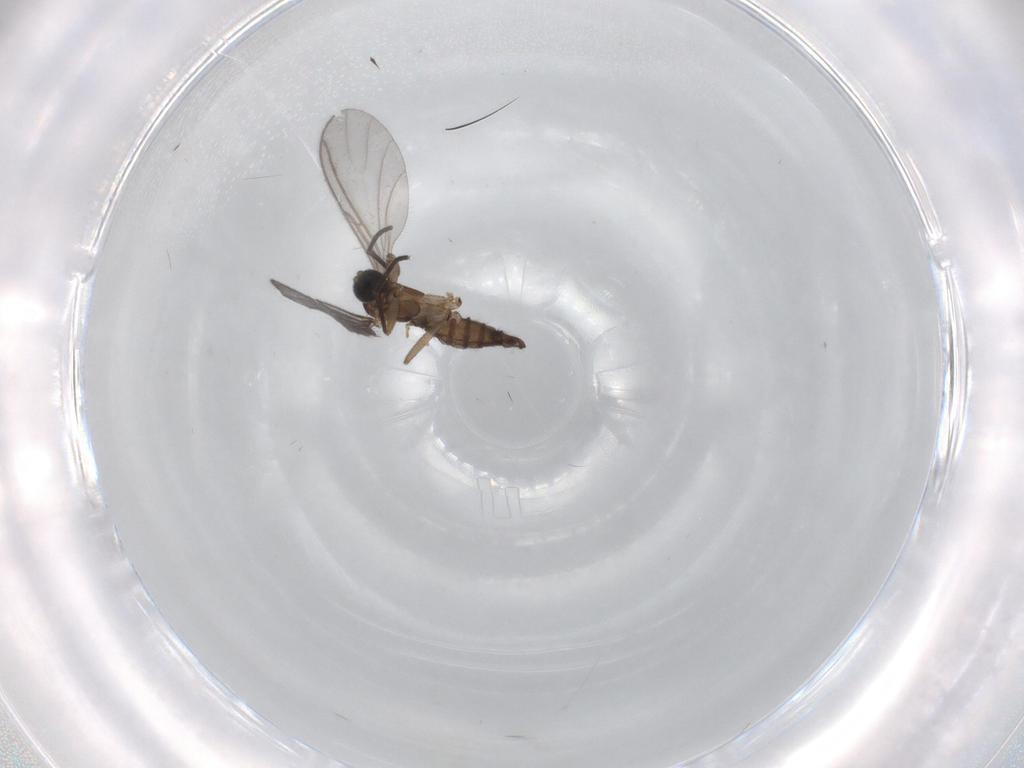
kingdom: Animalia
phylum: Arthropoda
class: Insecta
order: Diptera
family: Sciaridae
